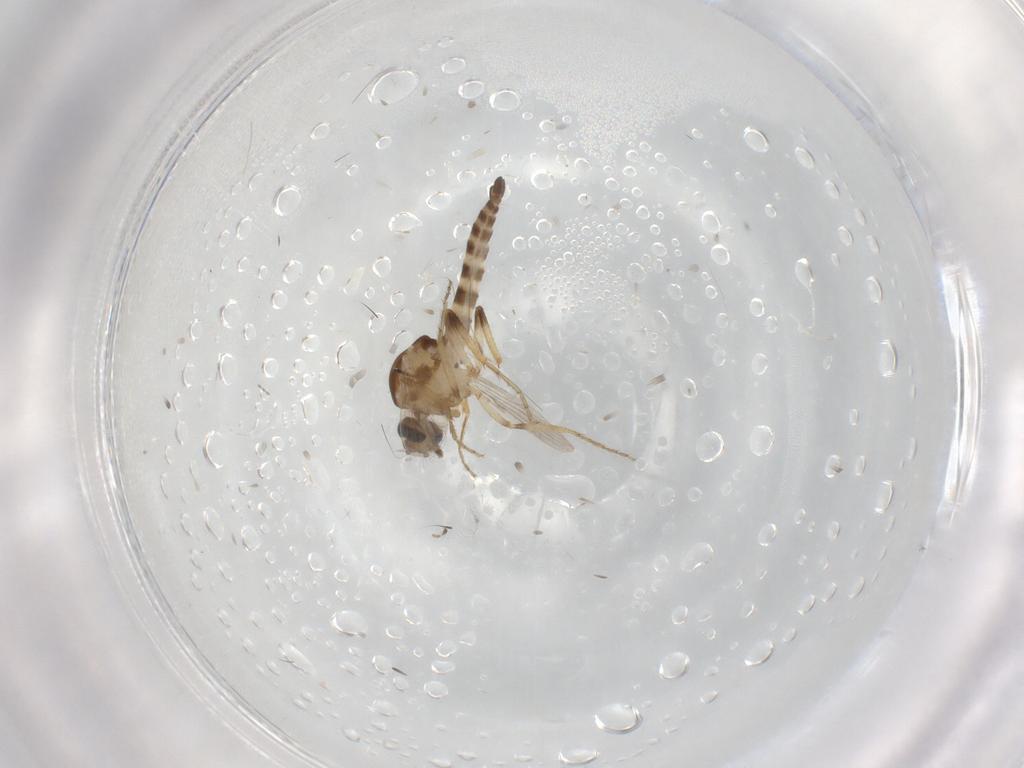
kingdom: Animalia
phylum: Arthropoda
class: Insecta
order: Diptera
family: Ceratopogonidae
